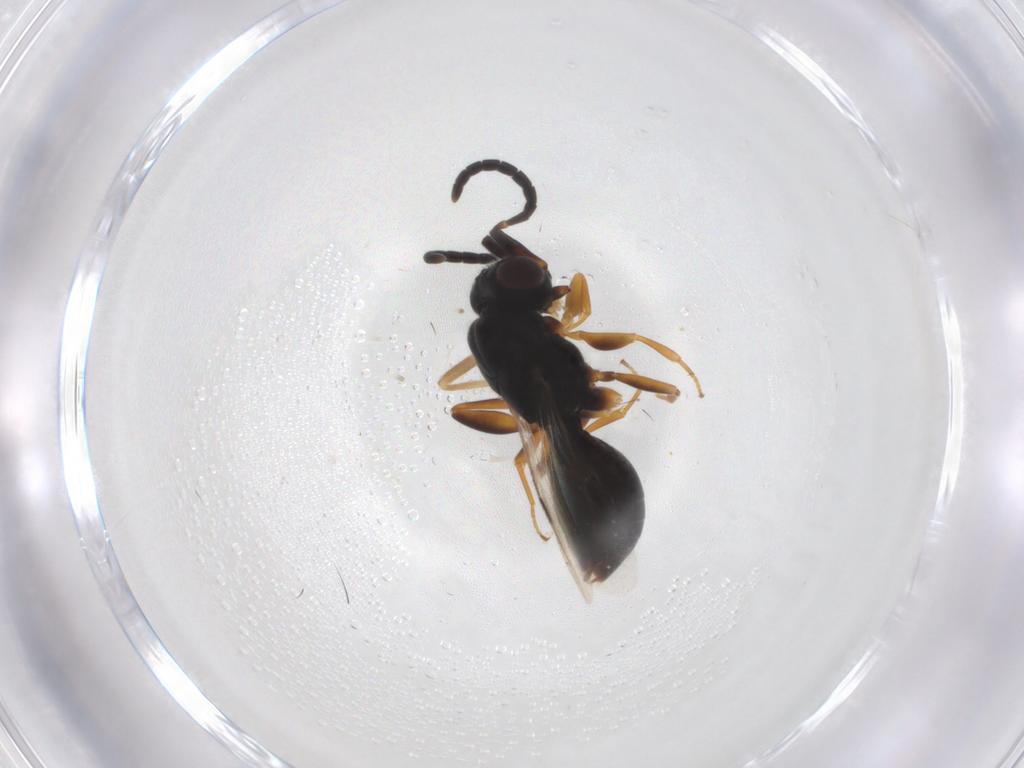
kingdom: Animalia
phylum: Arthropoda
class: Insecta
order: Hymenoptera
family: Megaspilidae
